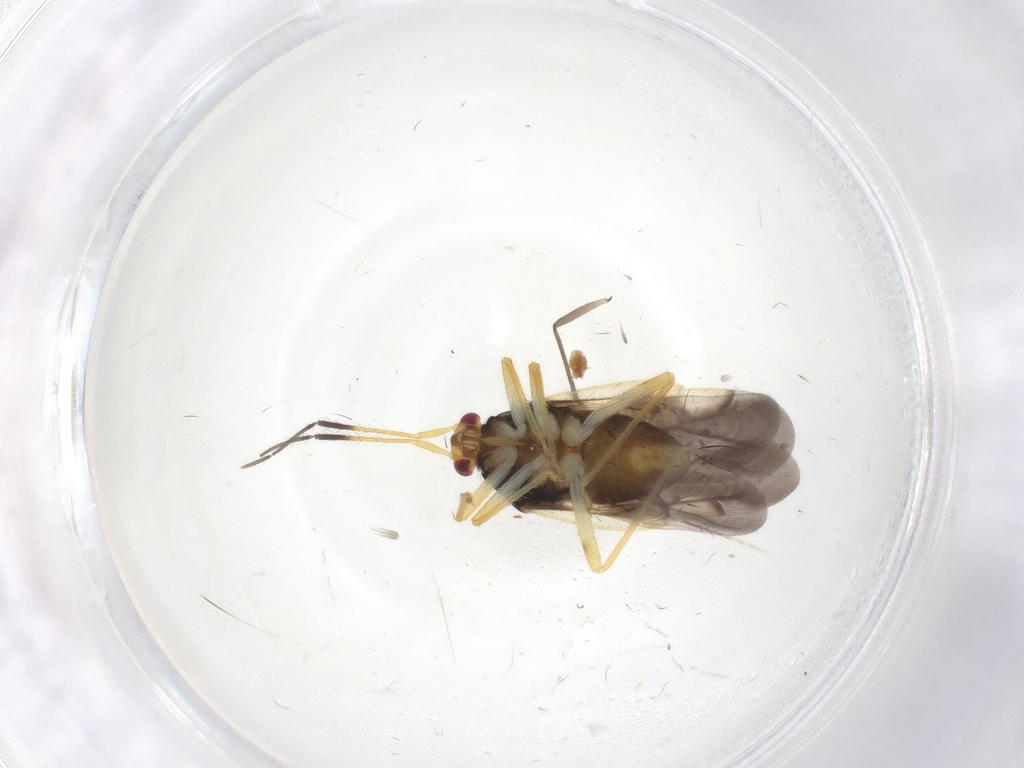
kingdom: Animalia
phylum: Arthropoda
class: Insecta
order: Hemiptera
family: Miridae
